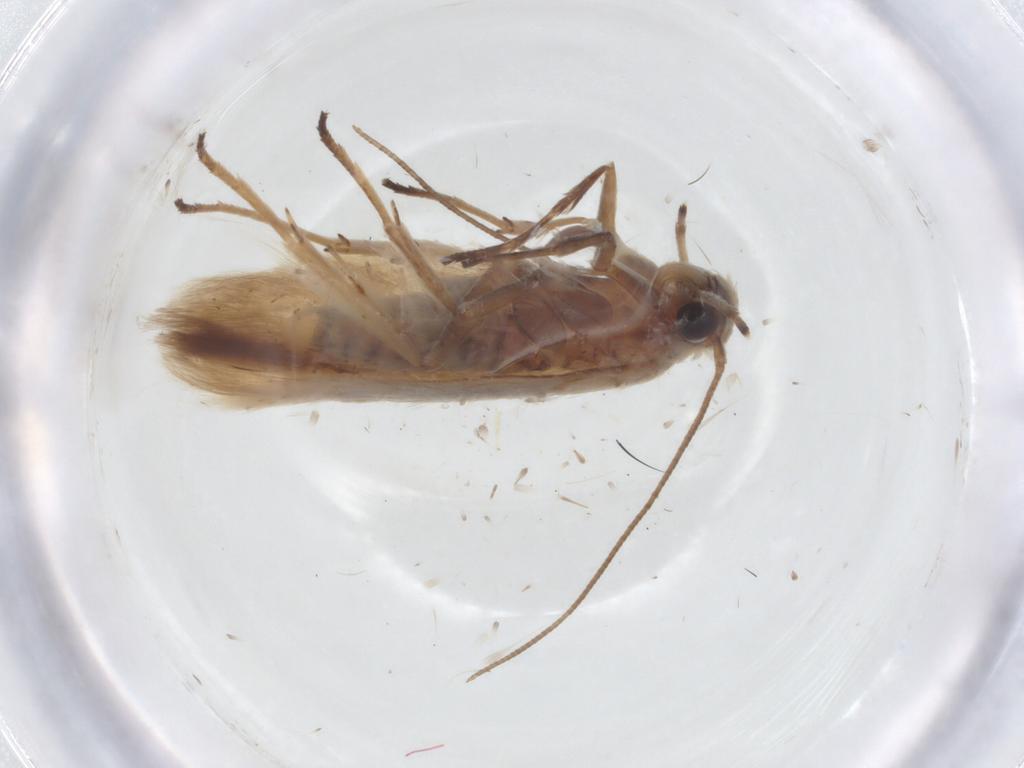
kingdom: Animalia
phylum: Arthropoda
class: Insecta
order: Lepidoptera
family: Scythrididae
